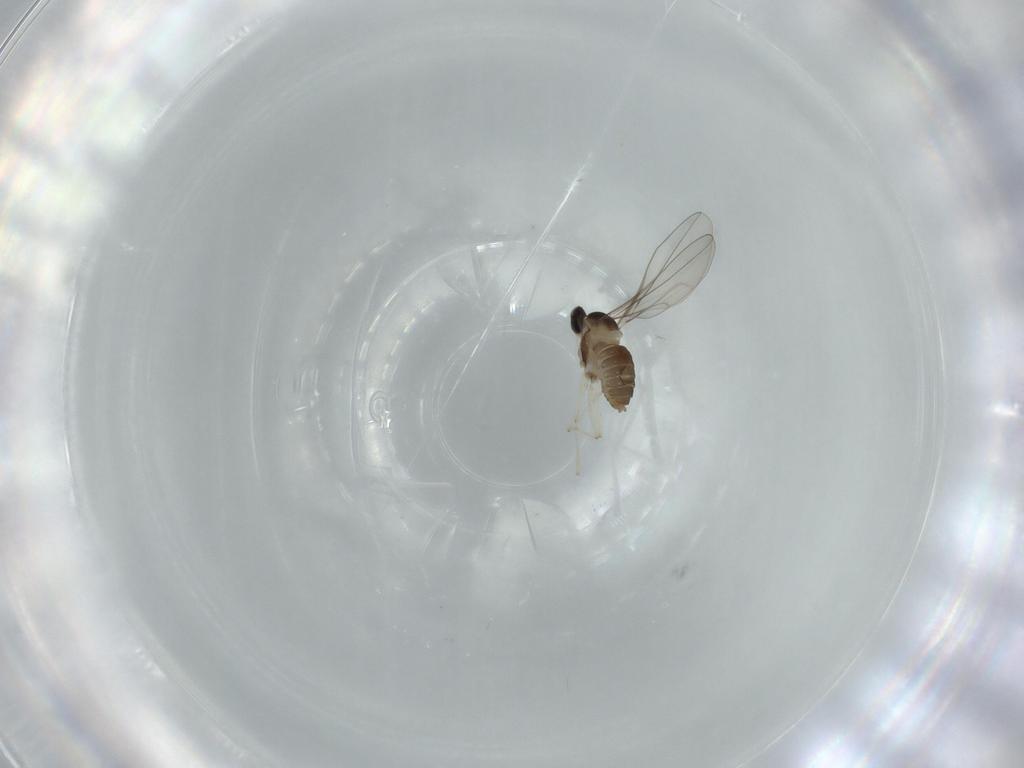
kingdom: Animalia
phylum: Arthropoda
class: Insecta
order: Diptera
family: Cecidomyiidae
